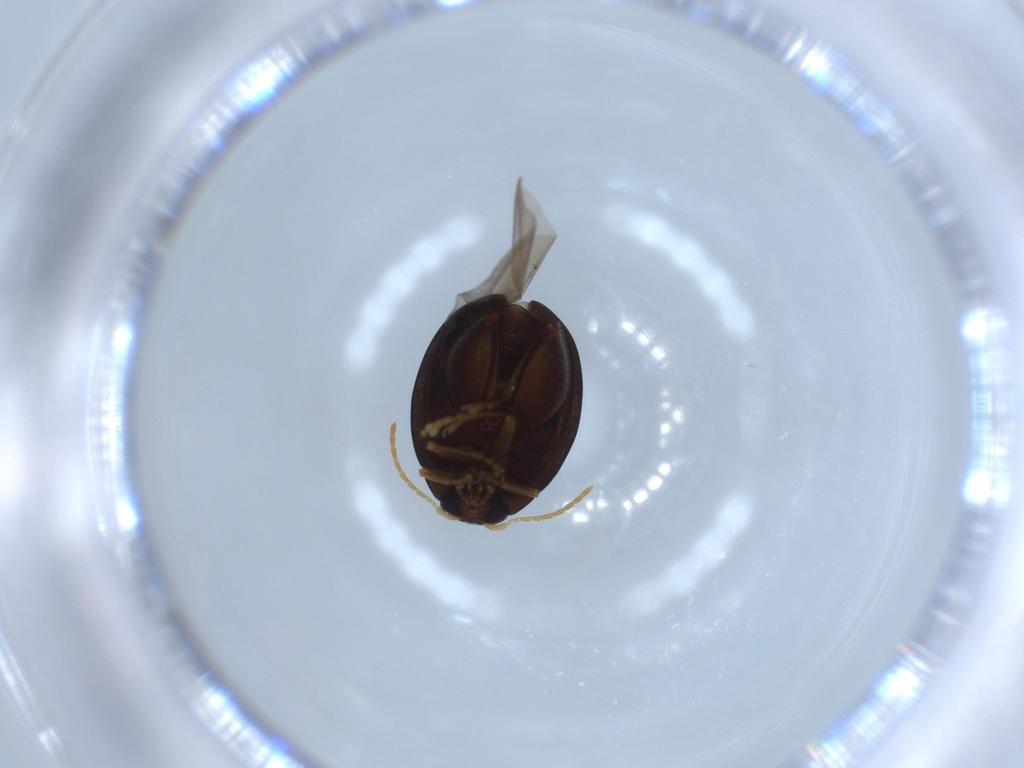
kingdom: Animalia
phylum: Arthropoda
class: Insecta
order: Coleoptera
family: Chrysomelidae
